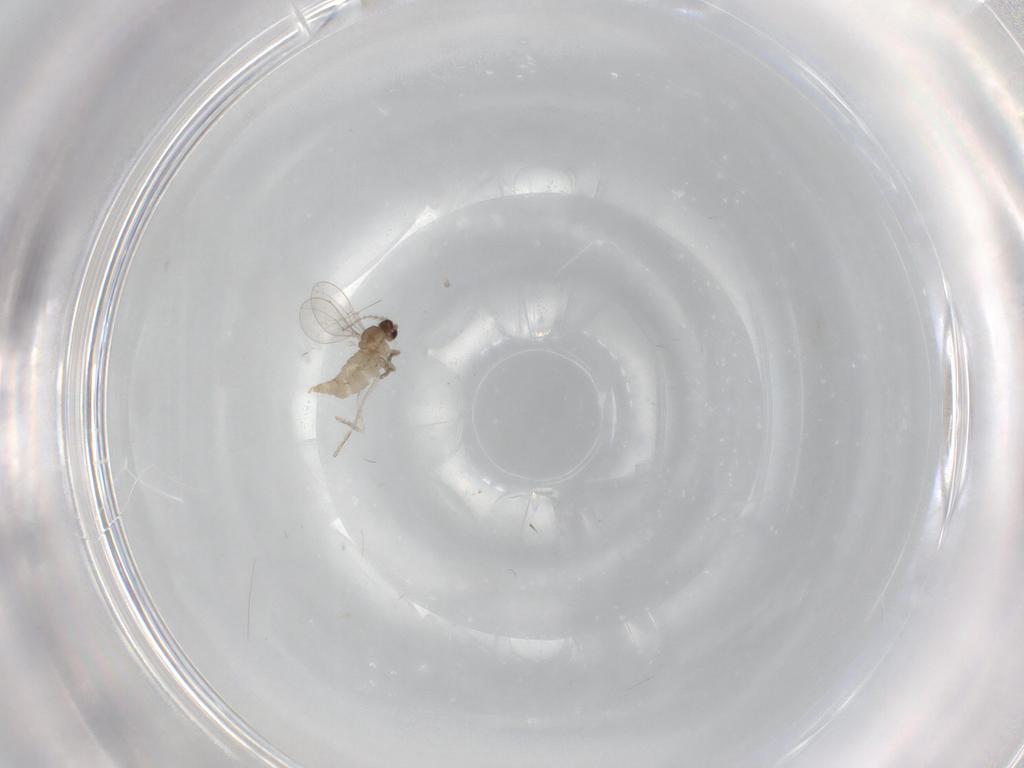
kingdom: Animalia
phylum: Arthropoda
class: Insecta
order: Diptera
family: Cecidomyiidae
